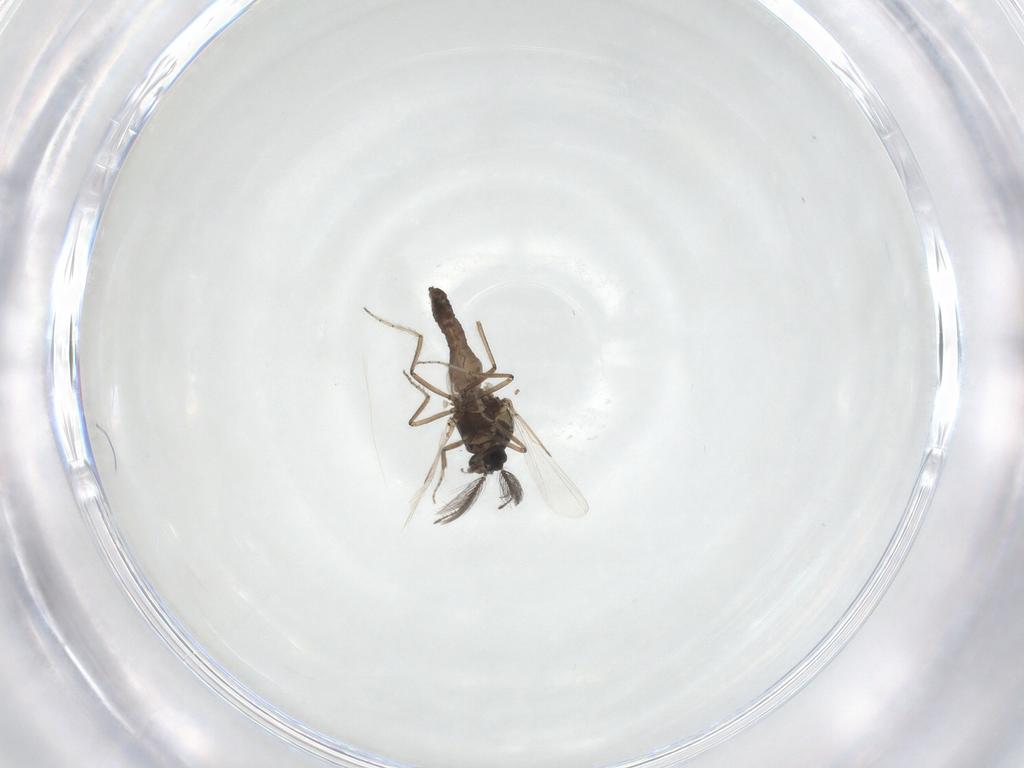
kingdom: Animalia
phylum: Arthropoda
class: Insecta
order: Diptera
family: Ceratopogonidae
